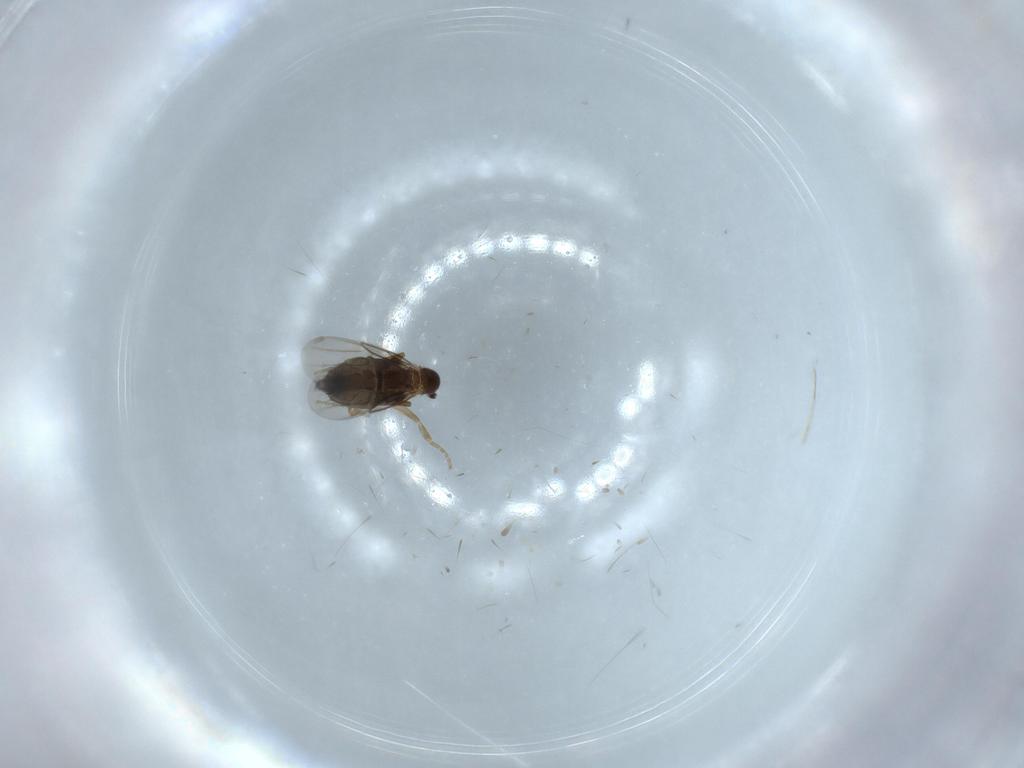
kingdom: Animalia
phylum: Arthropoda
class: Insecta
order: Diptera
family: Phoridae
